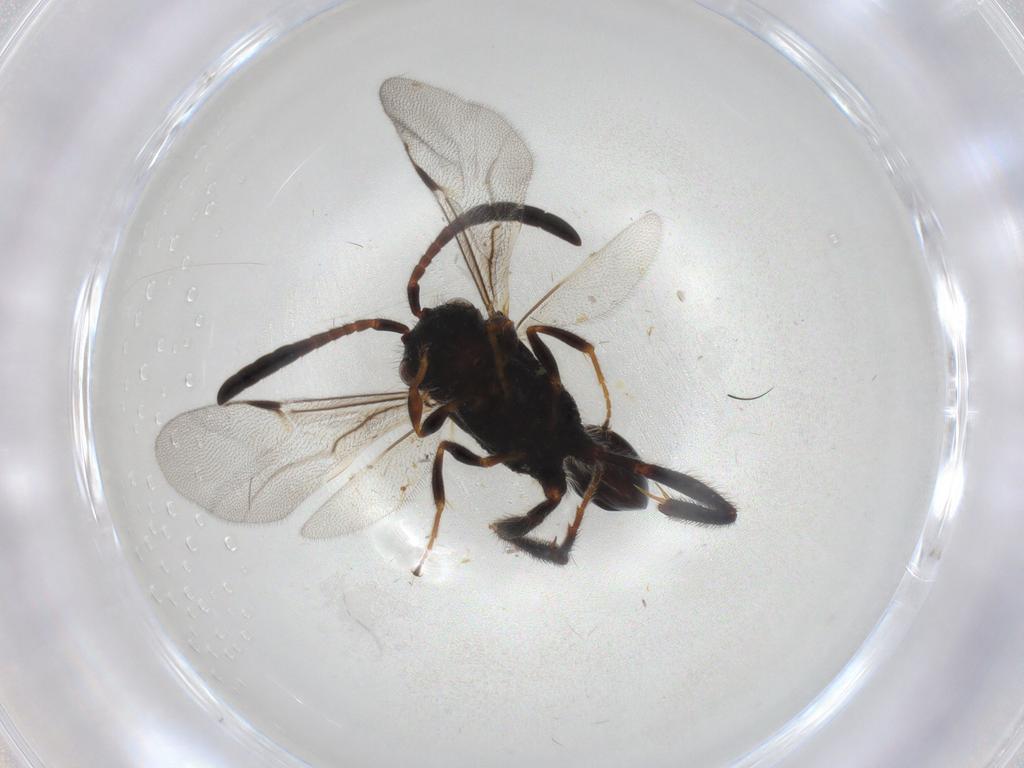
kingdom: Animalia
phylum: Arthropoda
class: Insecta
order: Hymenoptera
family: Evaniidae
